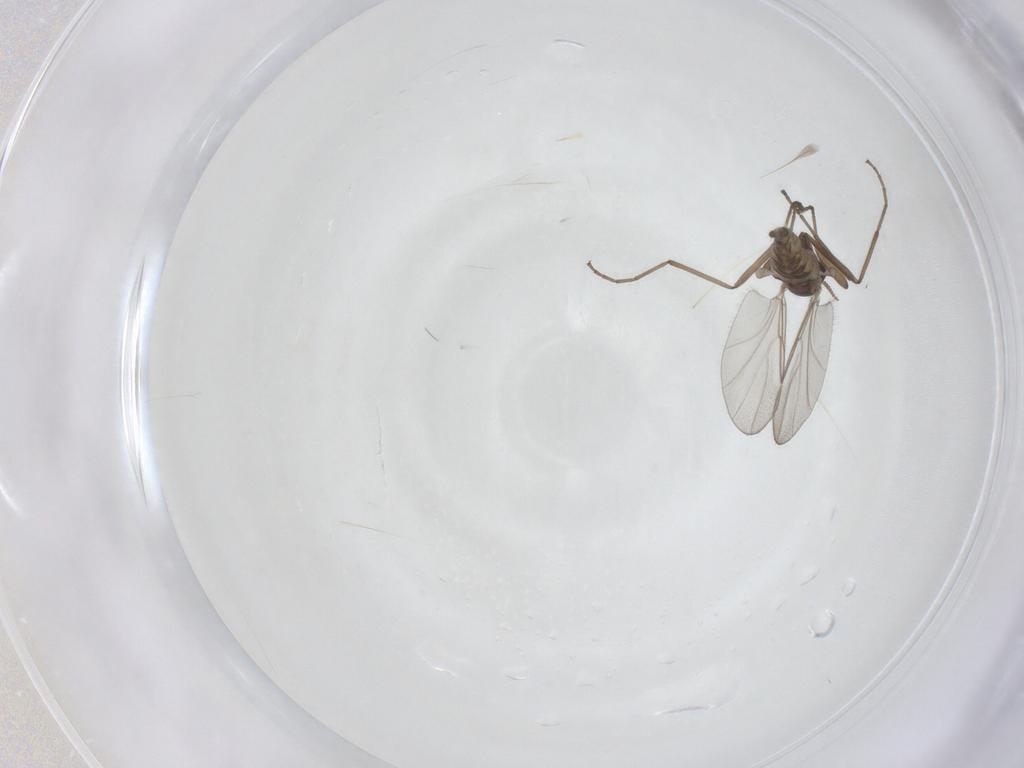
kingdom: Animalia
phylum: Arthropoda
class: Insecta
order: Diptera
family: Cecidomyiidae
